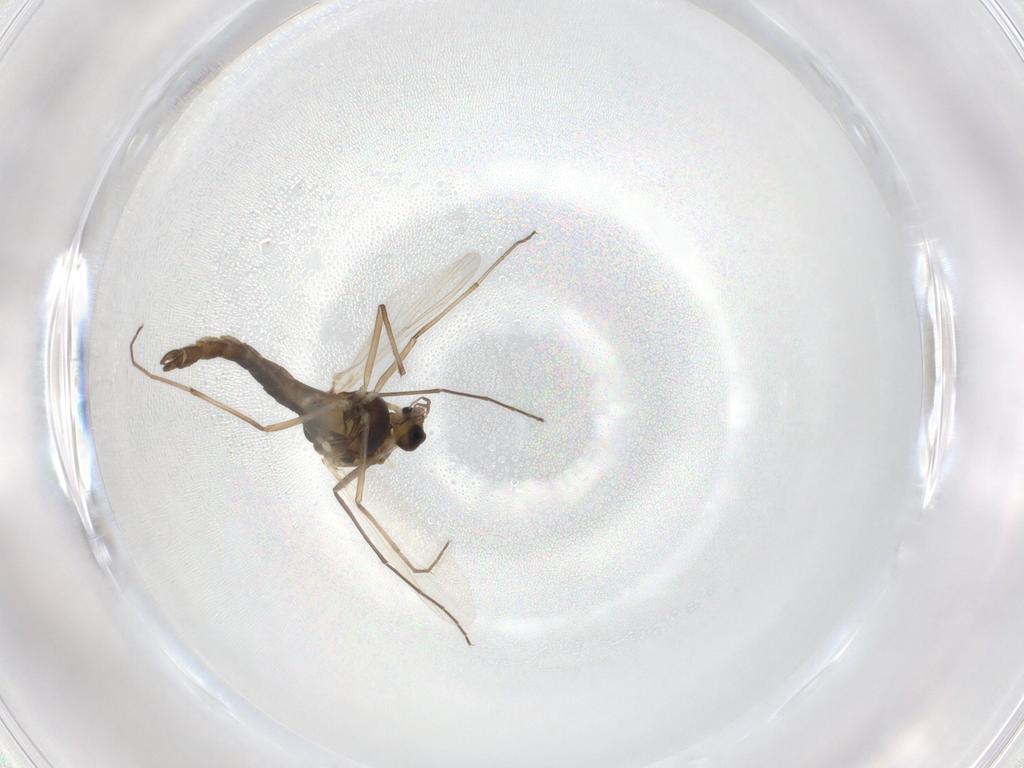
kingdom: Animalia
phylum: Arthropoda
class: Insecta
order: Diptera
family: Chironomidae
